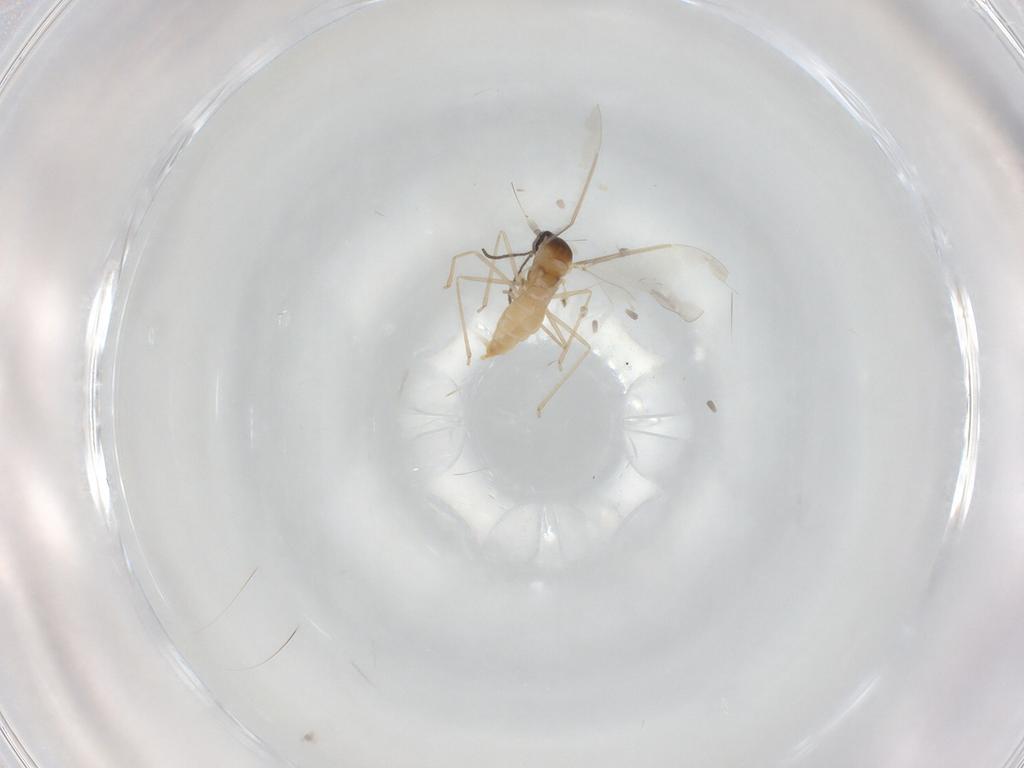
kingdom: Animalia
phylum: Arthropoda
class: Insecta
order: Diptera
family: Cecidomyiidae
